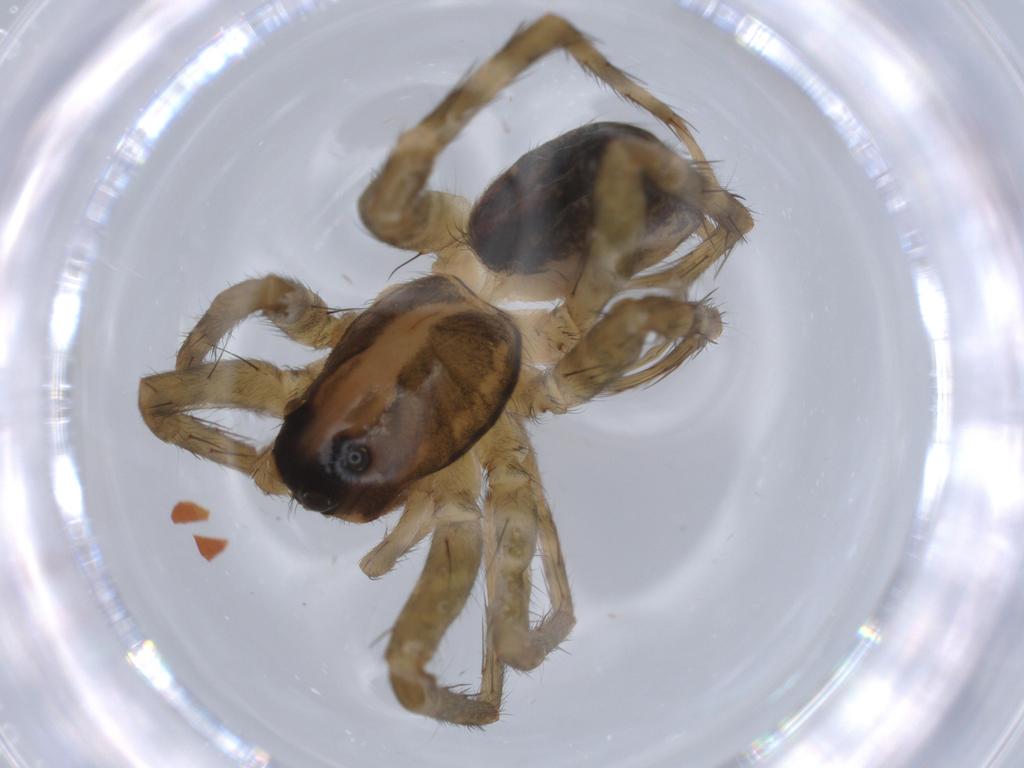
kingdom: Animalia
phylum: Arthropoda
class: Arachnida
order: Araneae
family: Lycosidae
